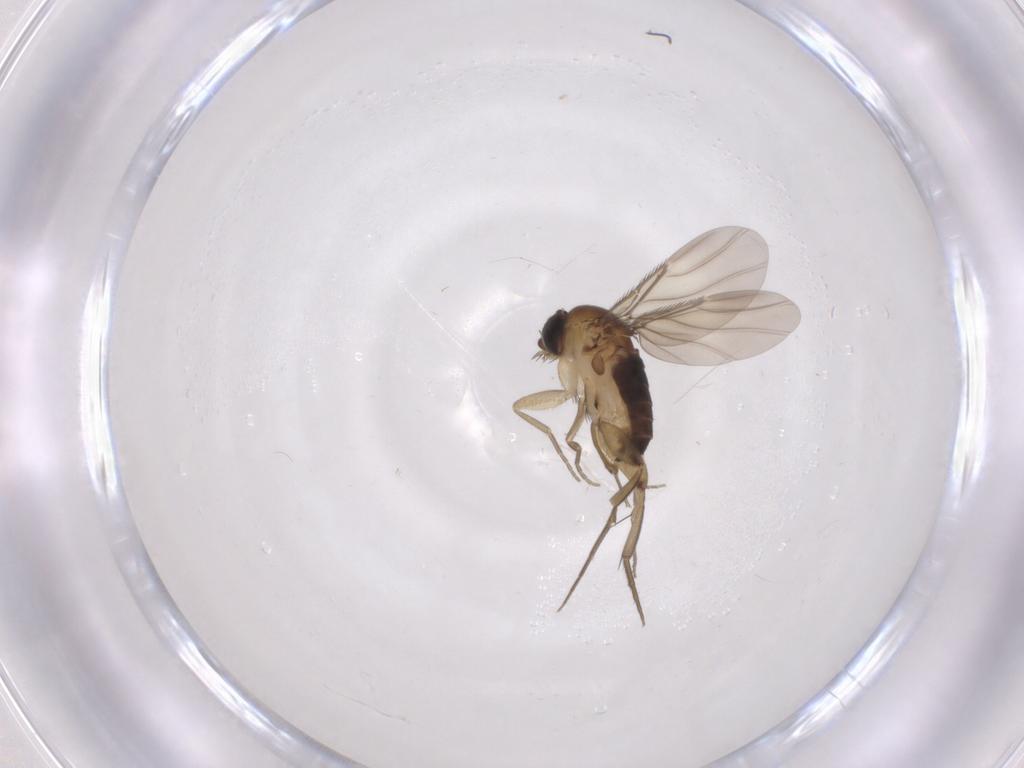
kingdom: Animalia
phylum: Arthropoda
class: Insecta
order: Diptera
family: Phoridae
